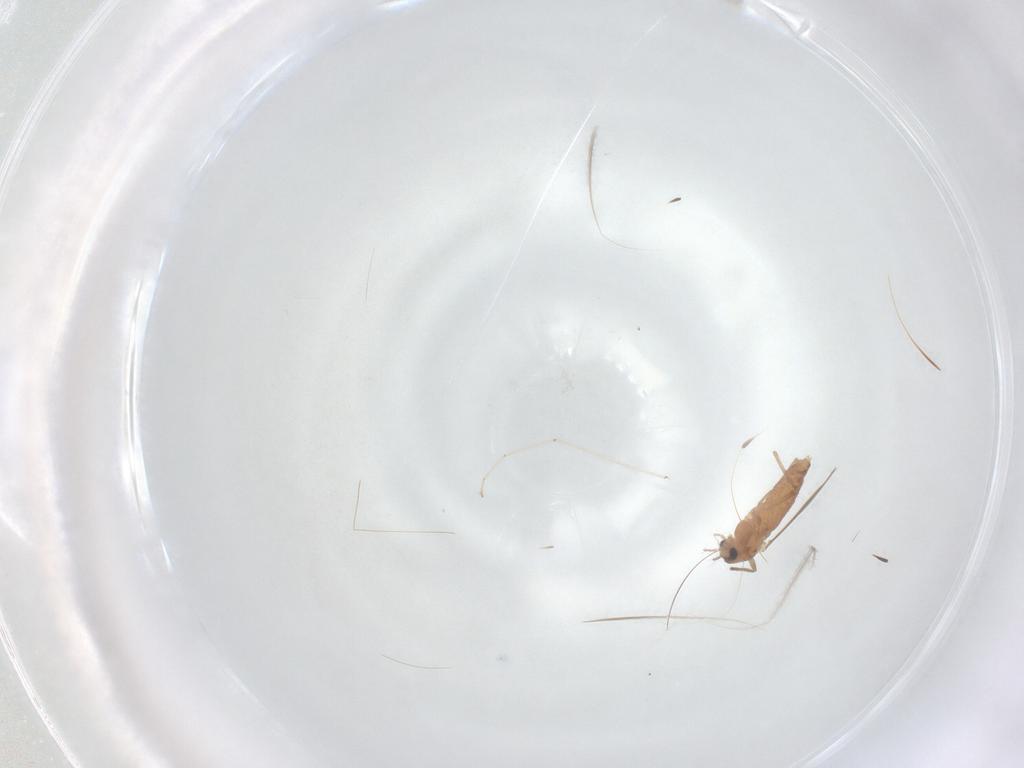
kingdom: Animalia
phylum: Arthropoda
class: Insecta
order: Diptera
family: Chironomidae
